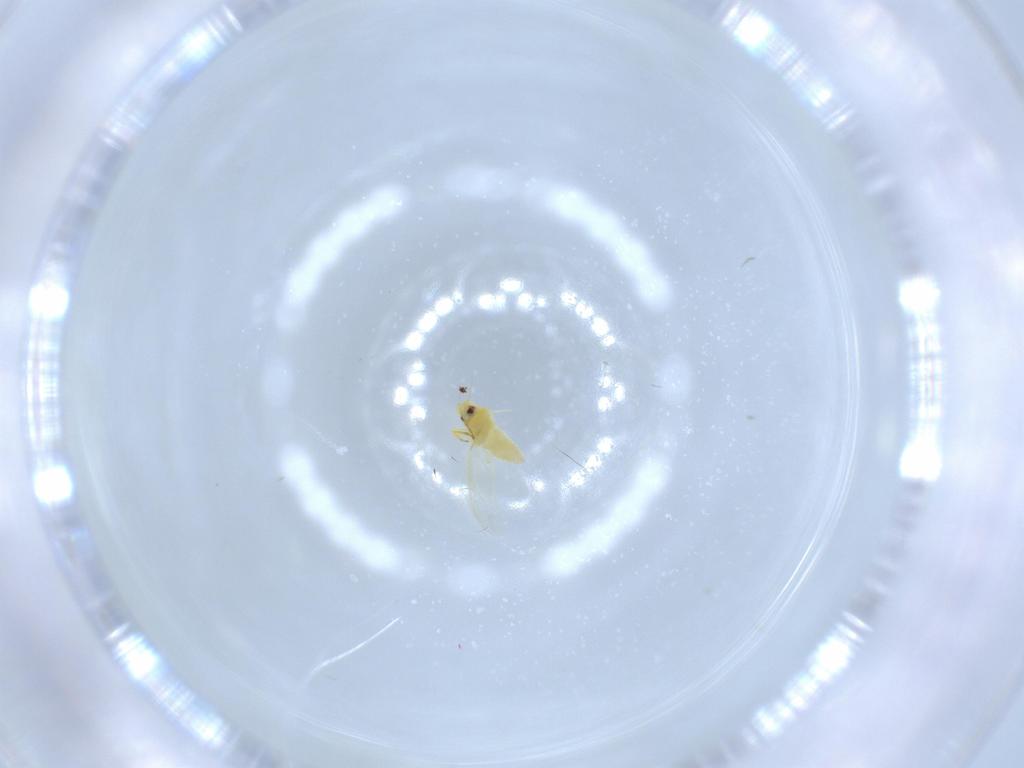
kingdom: Animalia
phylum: Arthropoda
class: Insecta
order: Hemiptera
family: Aleyrodidae
